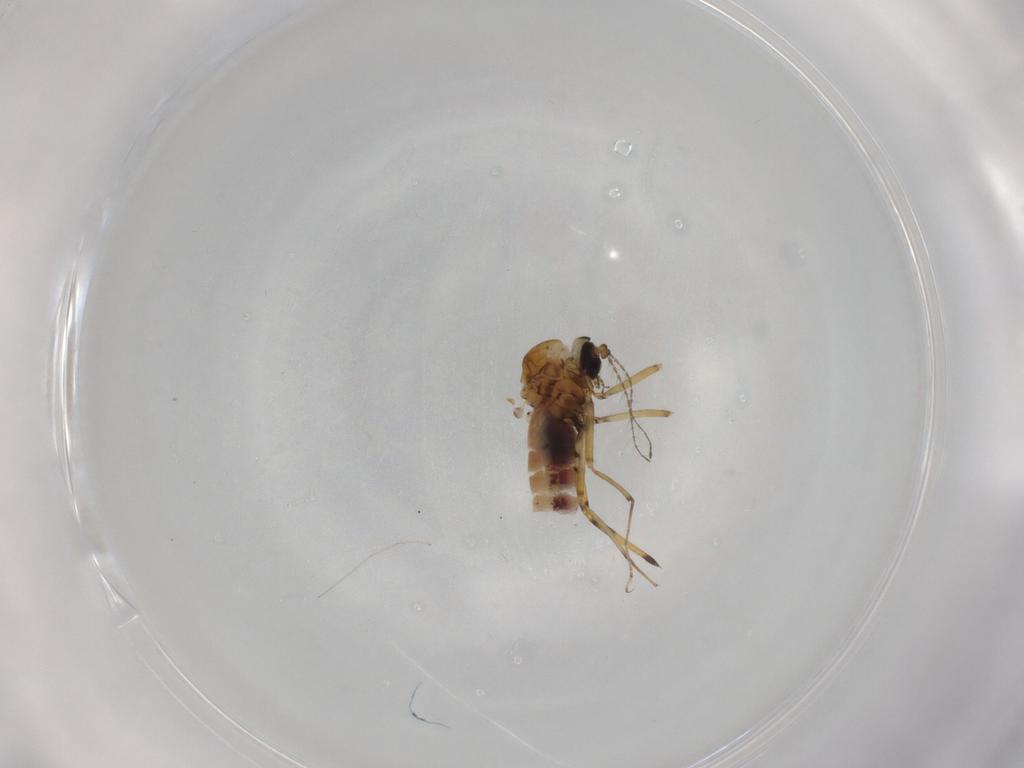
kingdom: Animalia
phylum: Arthropoda
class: Insecta
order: Diptera
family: Ceratopogonidae
